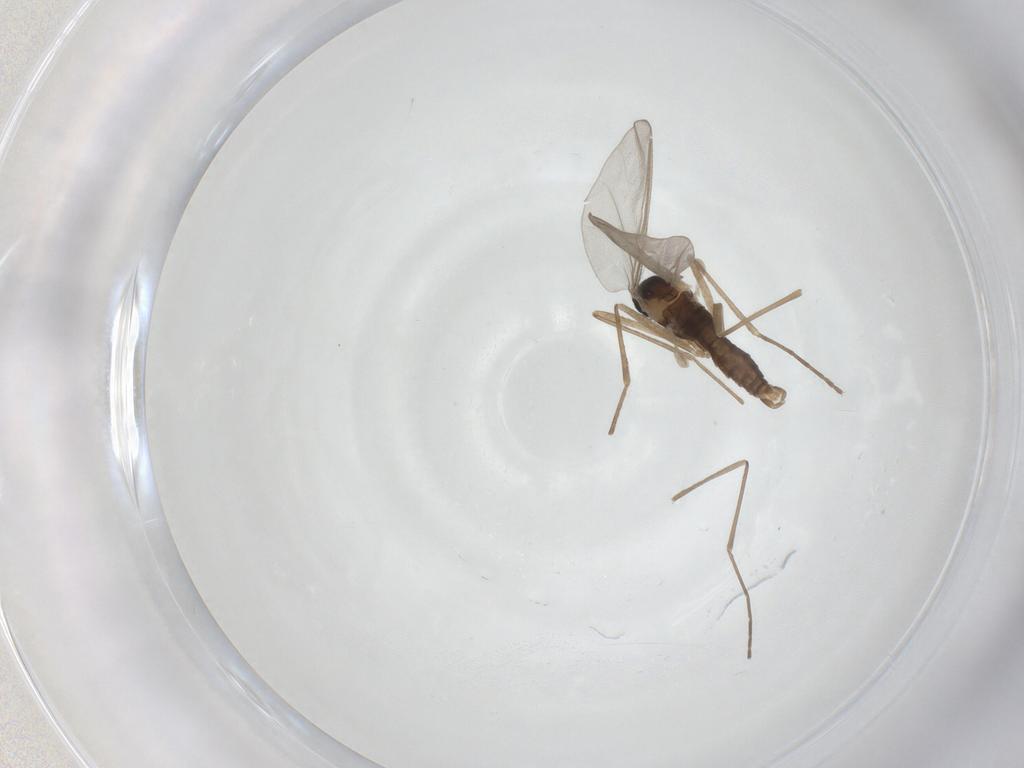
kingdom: Animalia
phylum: Arthropoda
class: Insecta
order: Diptera
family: Cecidomyiidae
